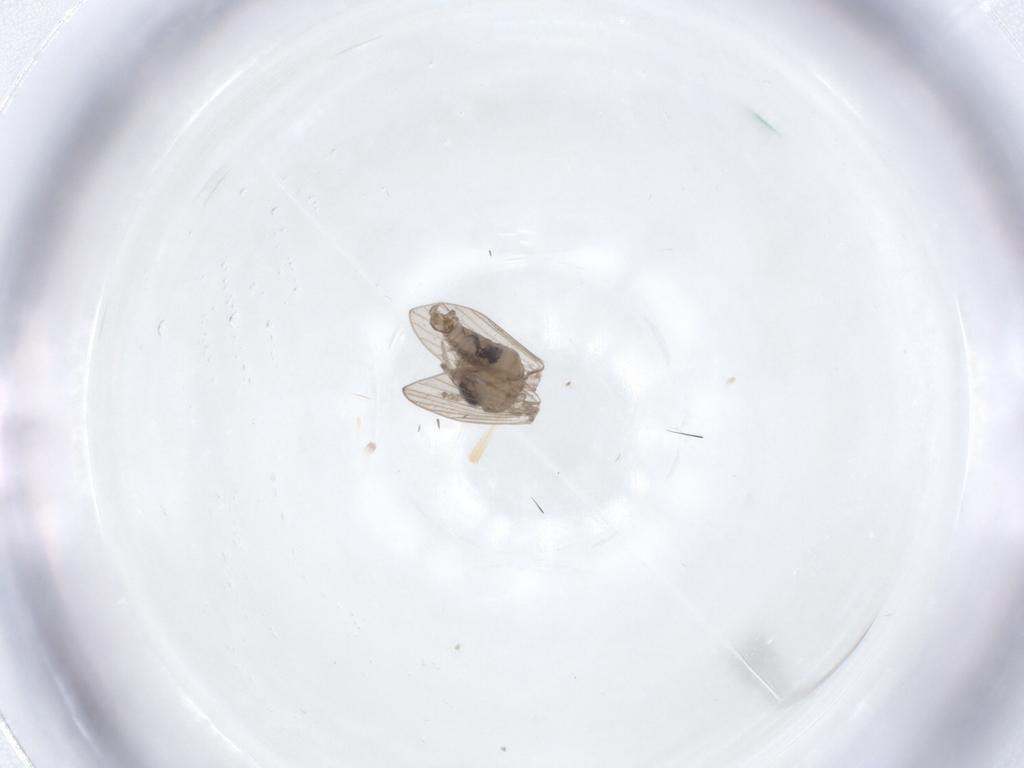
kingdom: Animalia
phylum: Arthropoda
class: Insecta
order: Diptera
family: Psychodidae
